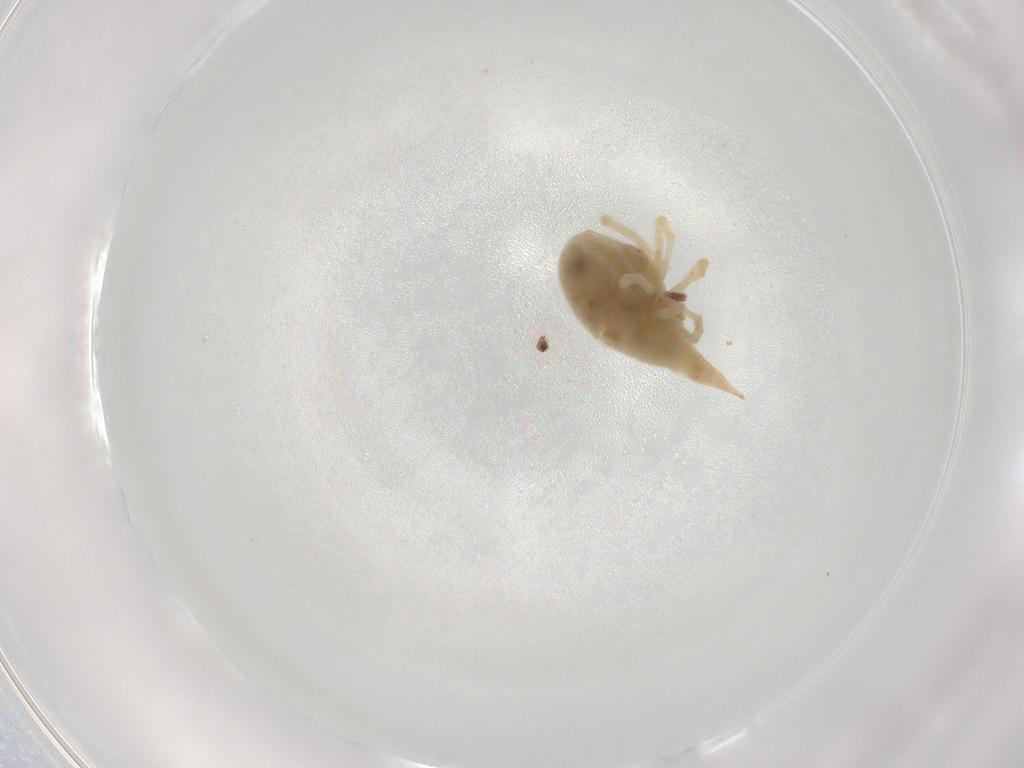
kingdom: Animalia
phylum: Arthropoda
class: Arachnida
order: Trombidiformes
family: Bdellidae
